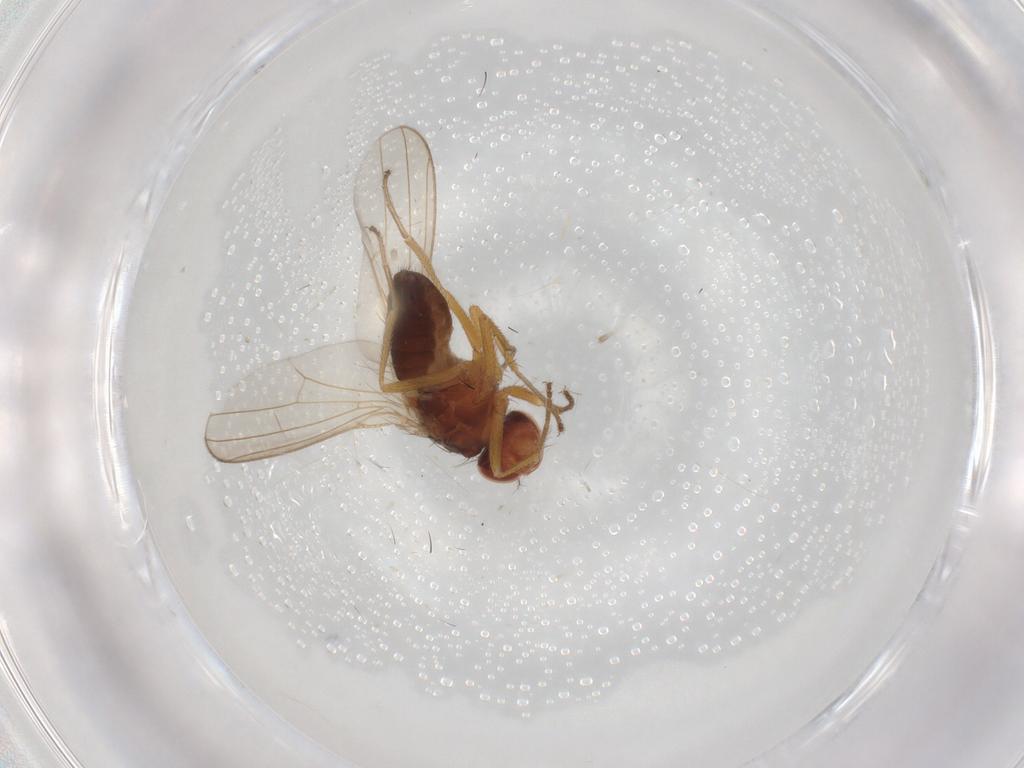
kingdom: Animalia
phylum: Arthropoda
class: Insecta
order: Diptera
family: Drosophilidae
